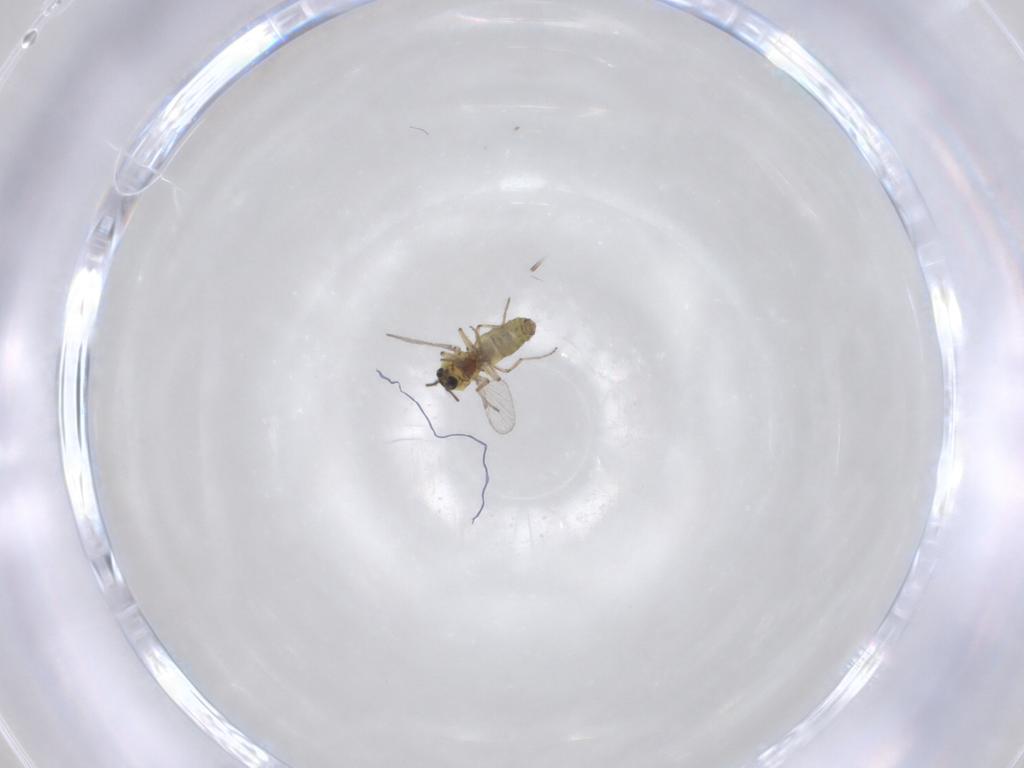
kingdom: Animalia
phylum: Arthropoda
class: Insecta
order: Diptera
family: Ceratopogonidae
